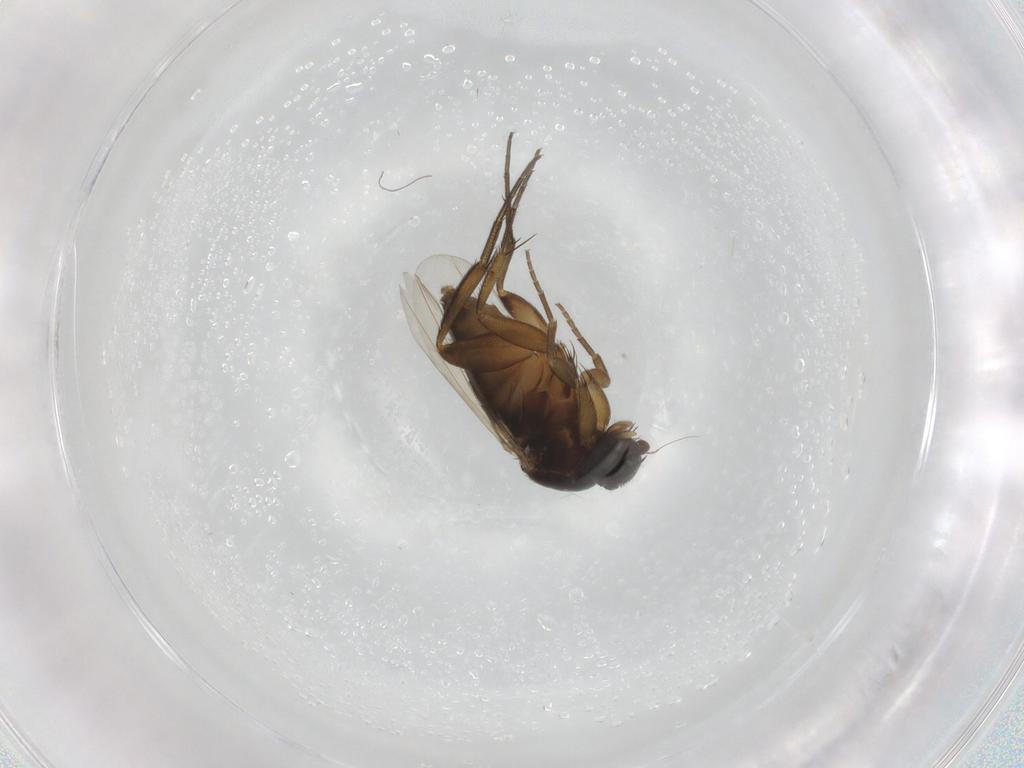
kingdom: Animalia
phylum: Arthropoda
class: Insecta
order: Diptera
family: Phoridae
